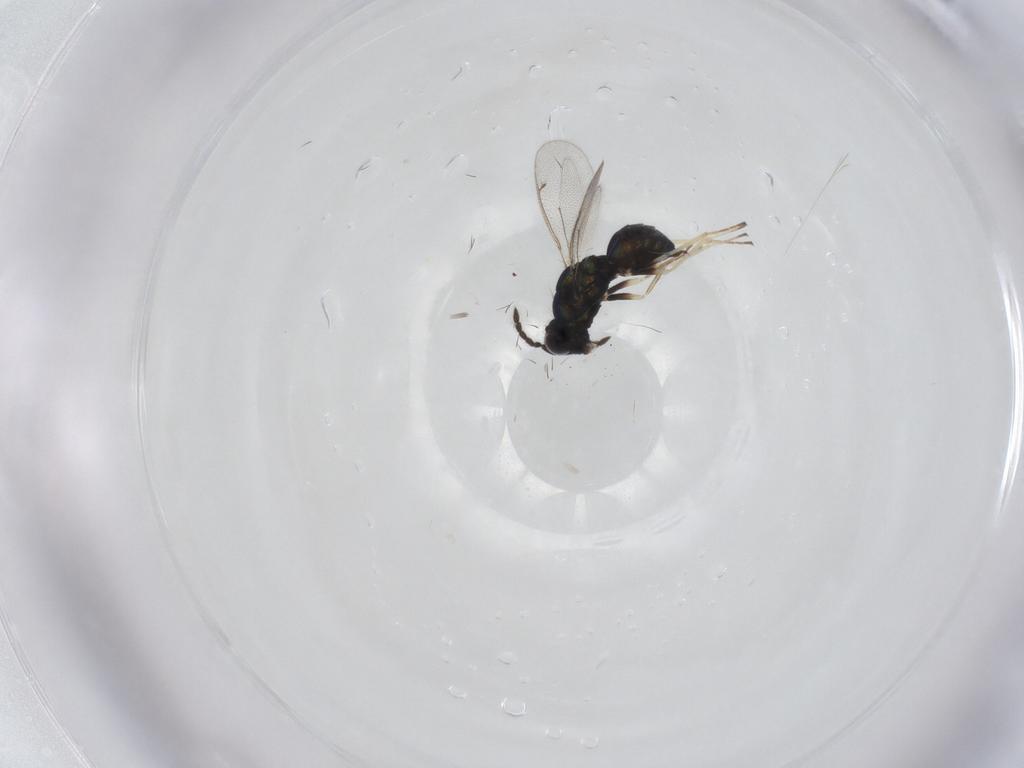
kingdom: Animalia
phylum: Arthropoda
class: Insecta
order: Hymenoptera
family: Eulophidae
